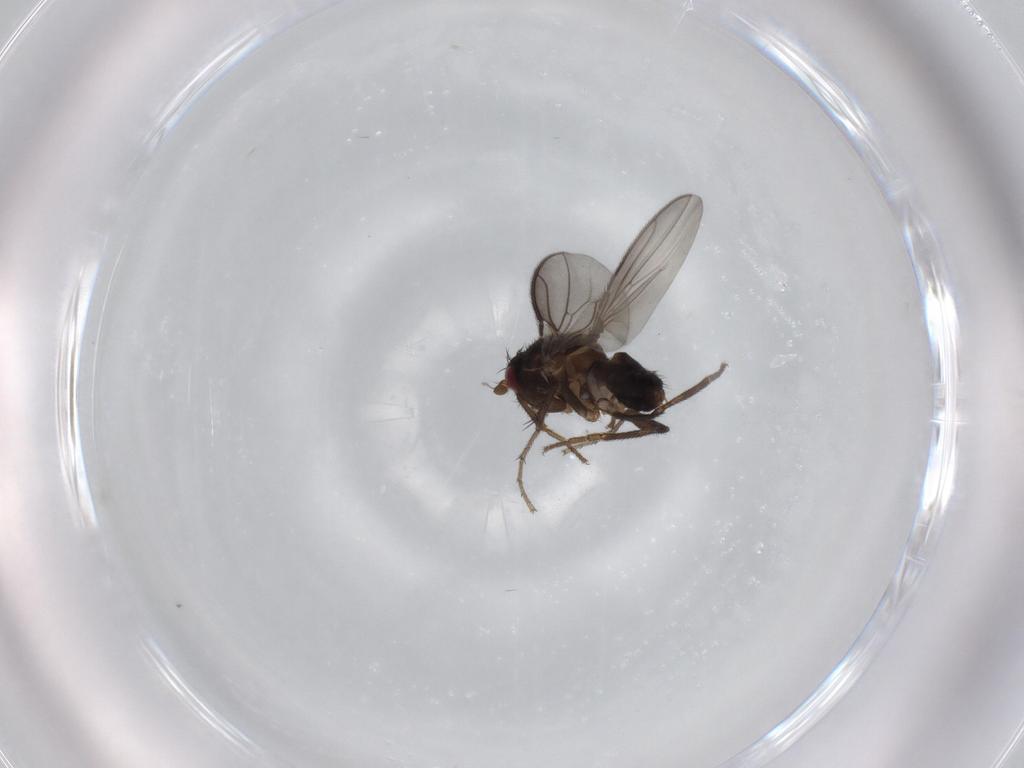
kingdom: Animalia
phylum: Arthropoda
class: Insecta
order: Diptera
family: Sphaeroceridae
